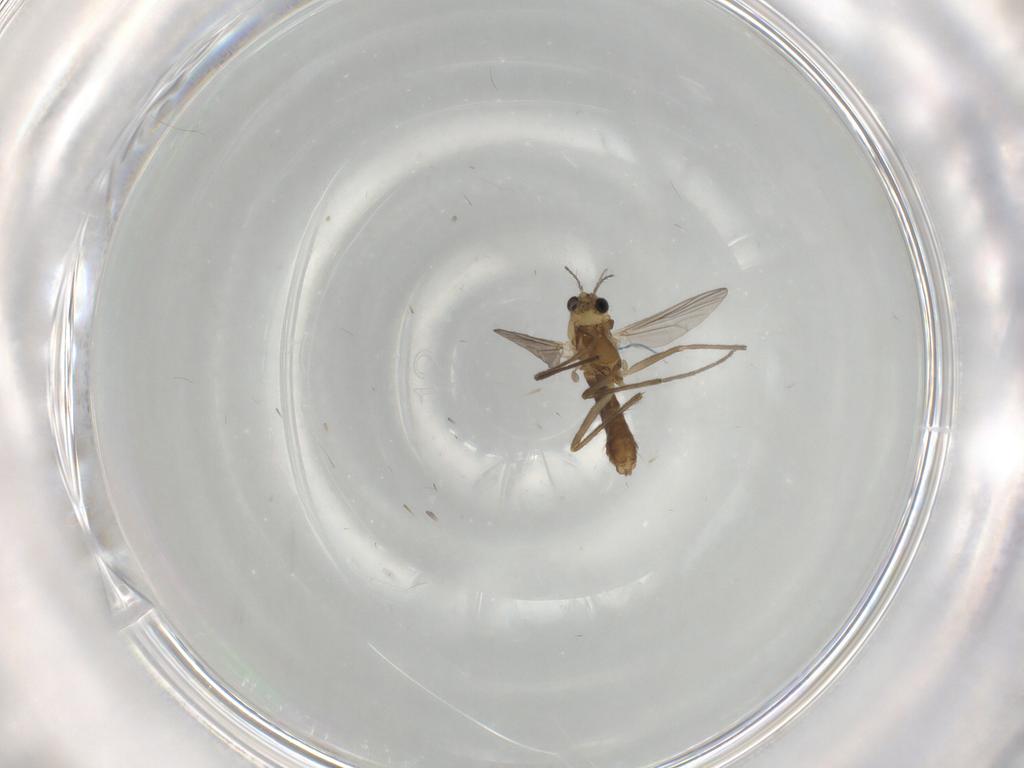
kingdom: Animalia
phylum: Arthropoda
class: Insecta
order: Diptera
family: Chironomidae
